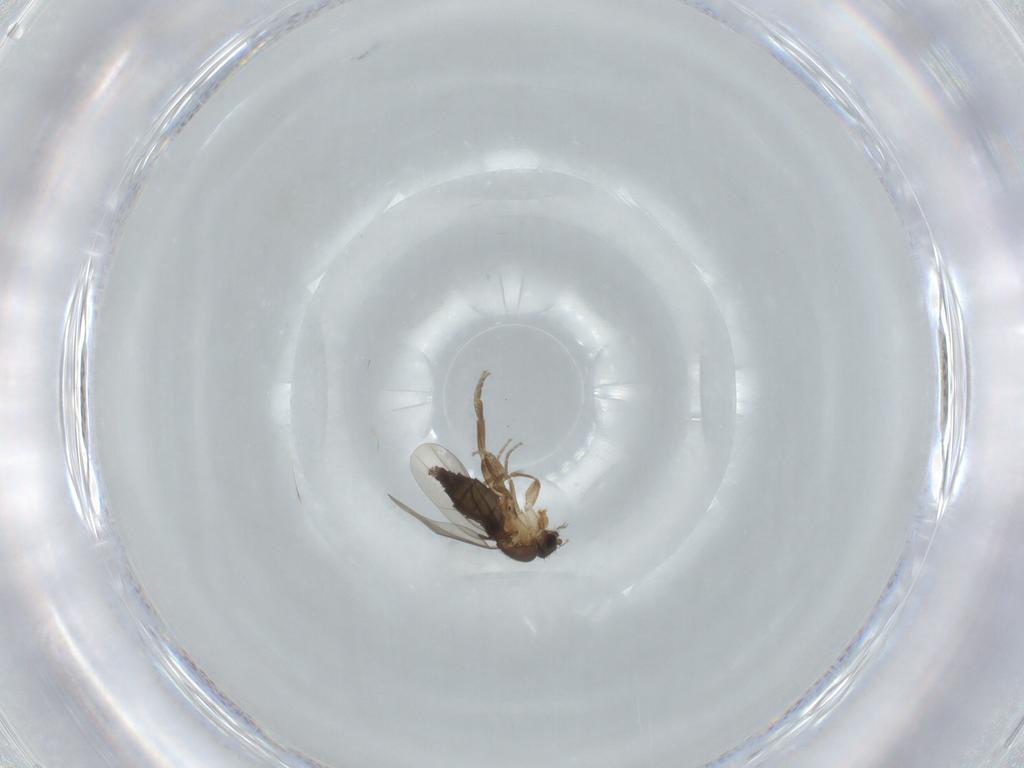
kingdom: Animalia
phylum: Arthropoda
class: Insecta
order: Diptera
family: Phoridae
